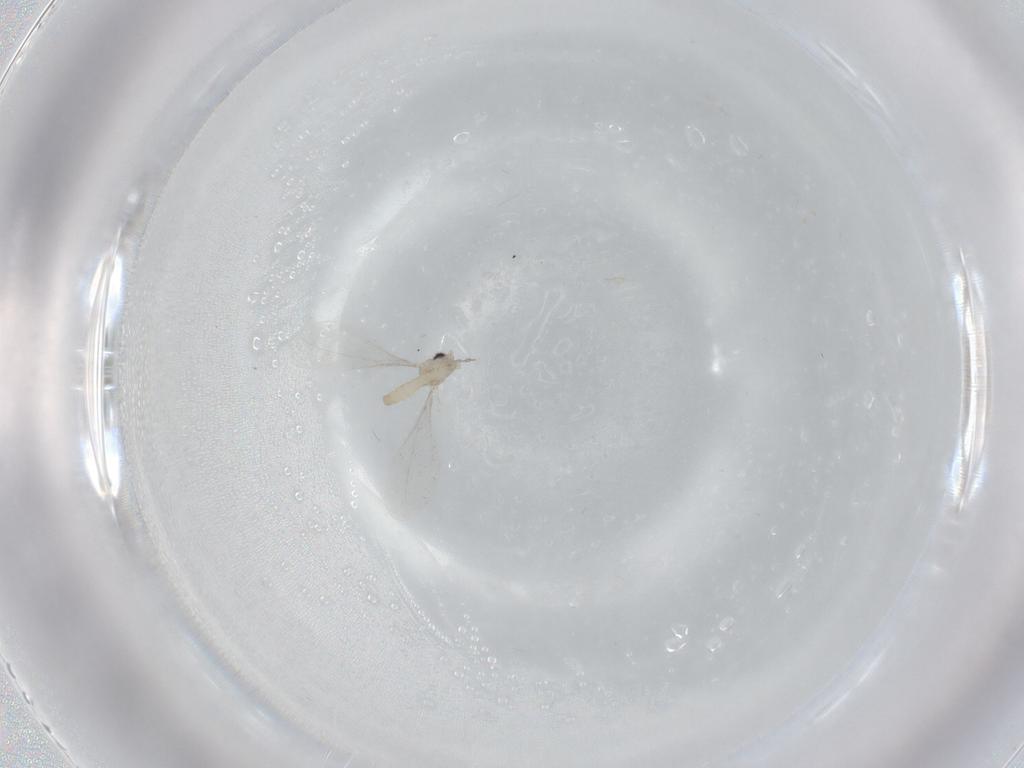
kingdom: Animalia
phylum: Arthropoda
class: Insecta
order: Diptera
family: Cecidomyiidae
